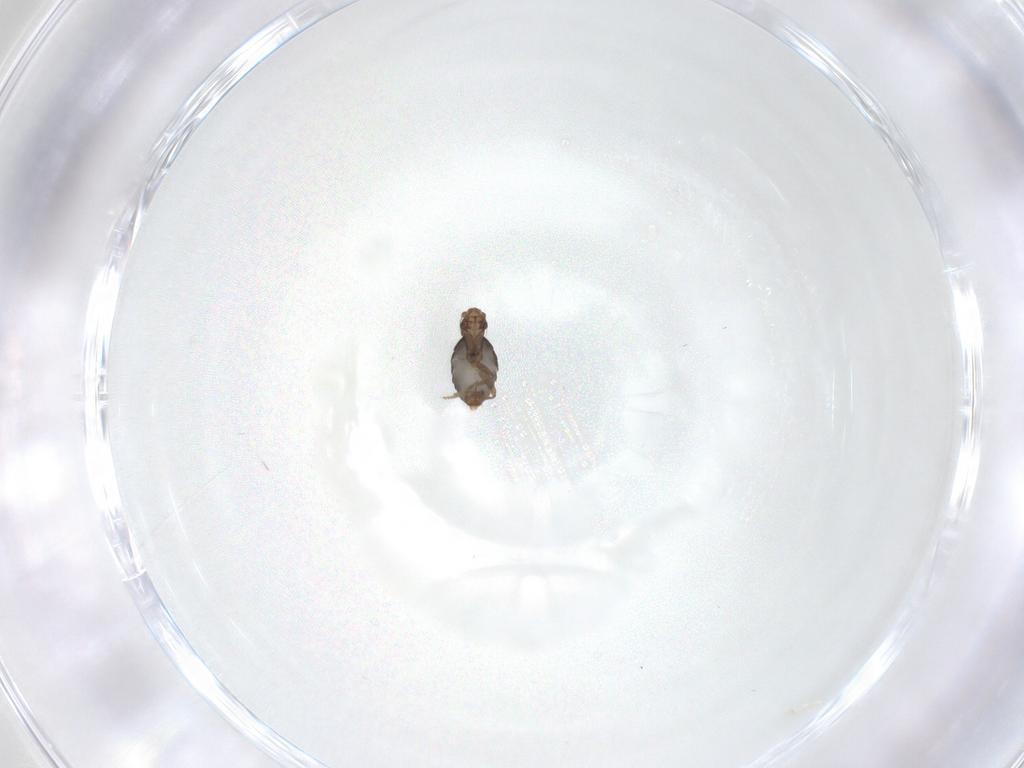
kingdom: Animalia
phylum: Arthropoda
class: Insecta
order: Diptera
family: Phoridae
